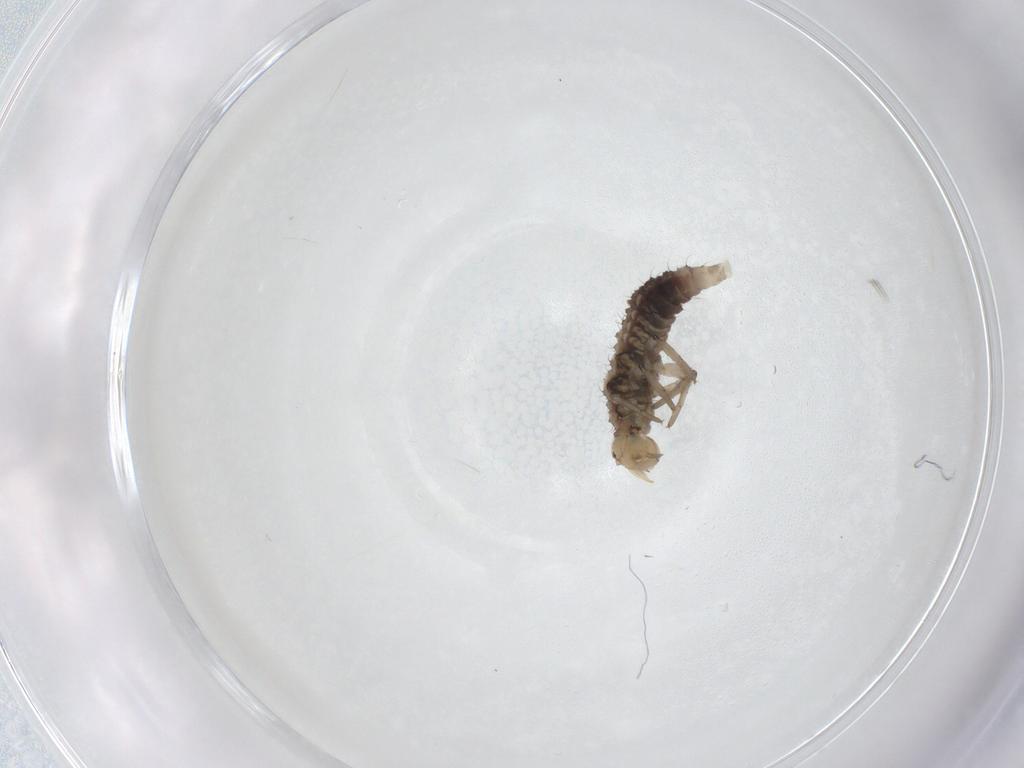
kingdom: Animalia
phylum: Arthropoda
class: Insecta
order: Neuroptera
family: Hemerobiidae
